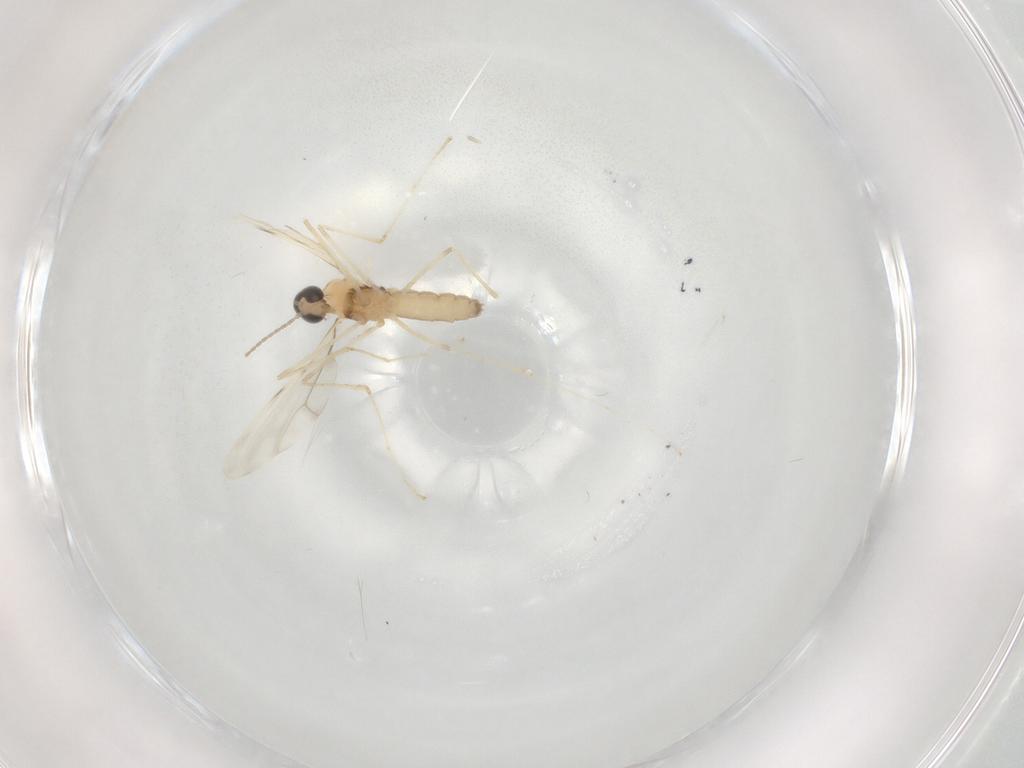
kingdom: Animalia
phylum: Arthropoda
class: Insecta
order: Diptera
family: Cecidomyiidae
